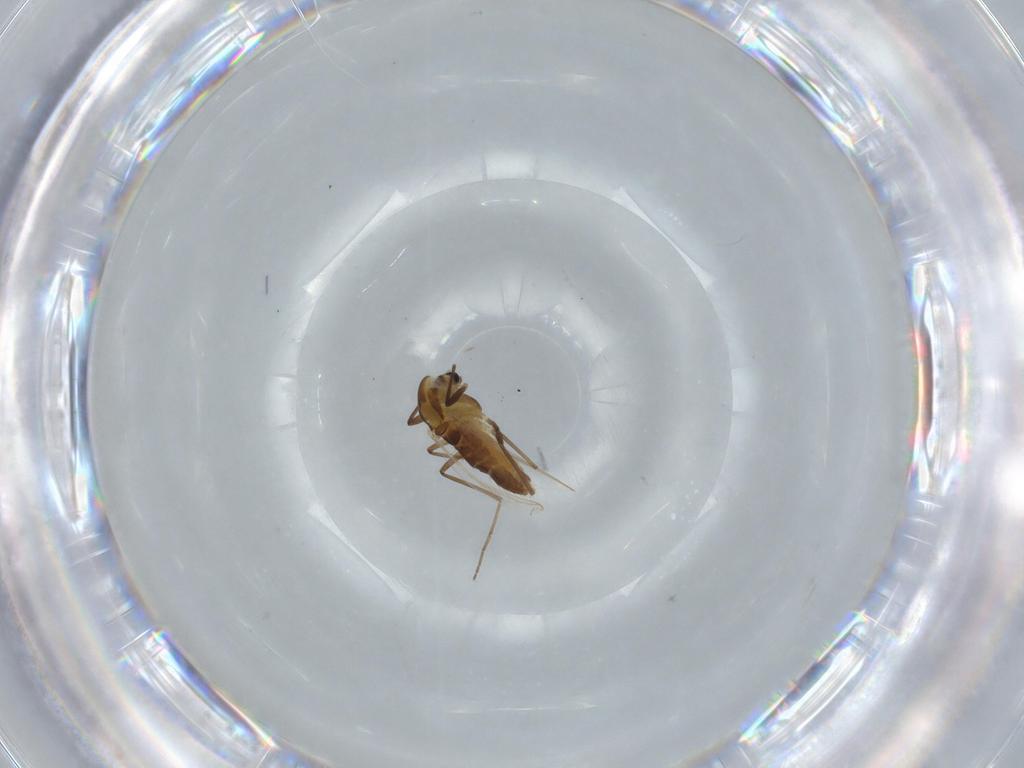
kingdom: Animalia
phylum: Arthropoda
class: Insecta
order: Diptera
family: Chironomidae
